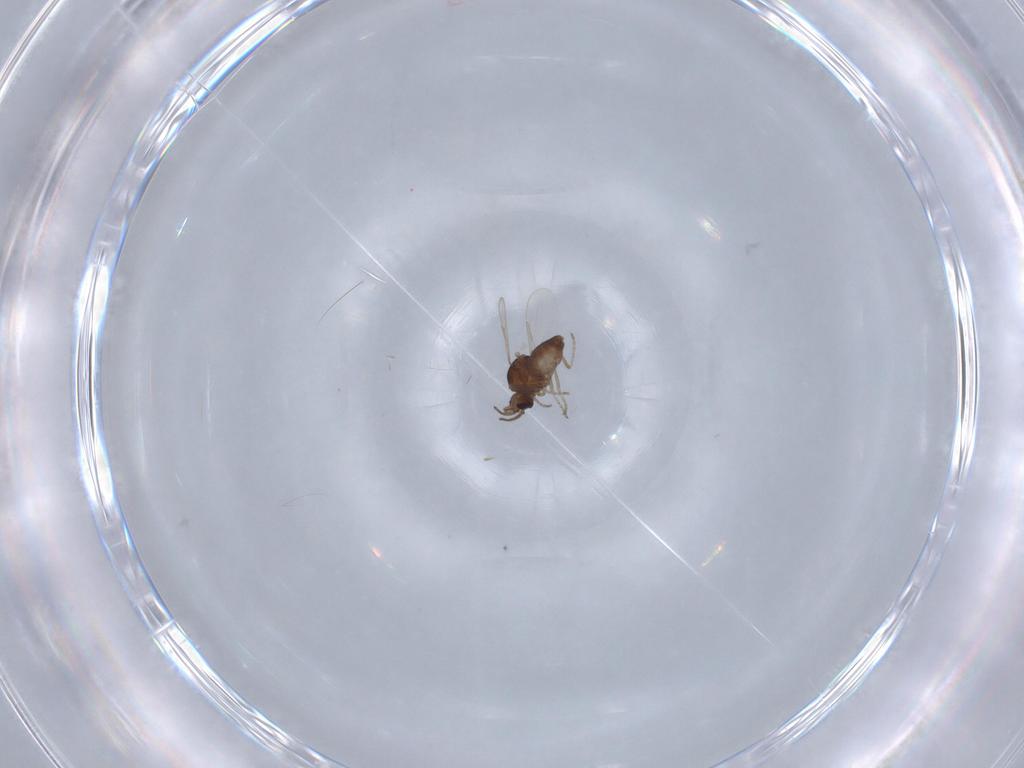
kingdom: Animalia
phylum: Arthropoda
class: Insecta
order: Diptera
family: Ceratopogonidae
